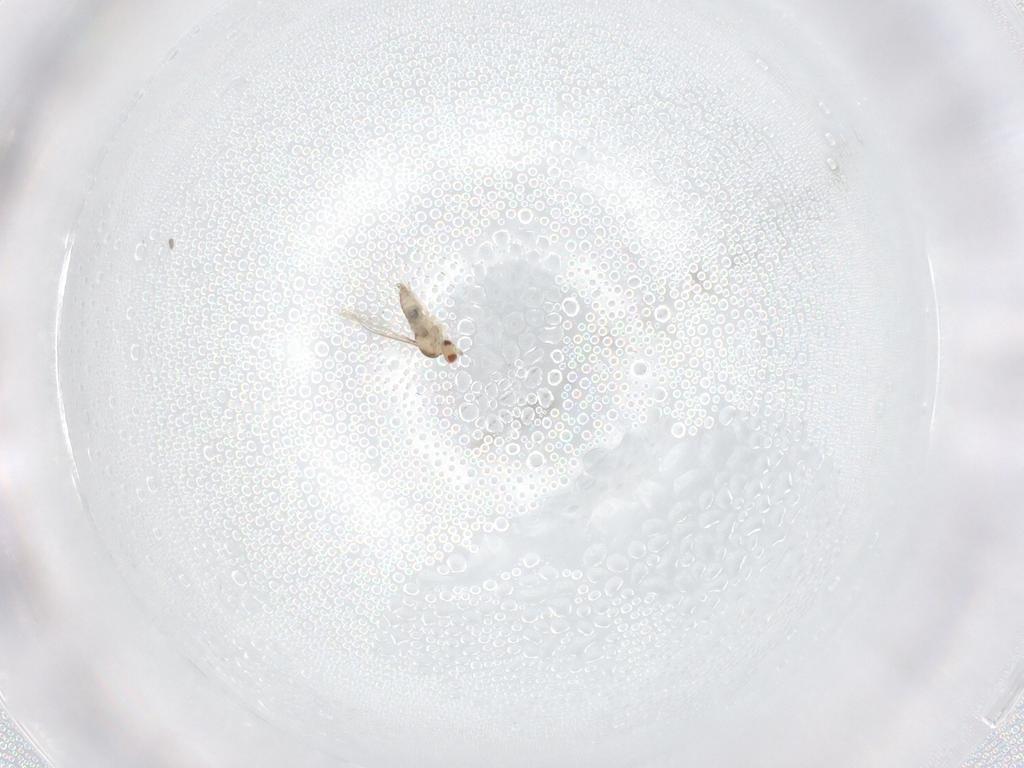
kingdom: Animalia
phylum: Arthropoda
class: Insecta
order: Diptera
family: Cecidomyiidae
